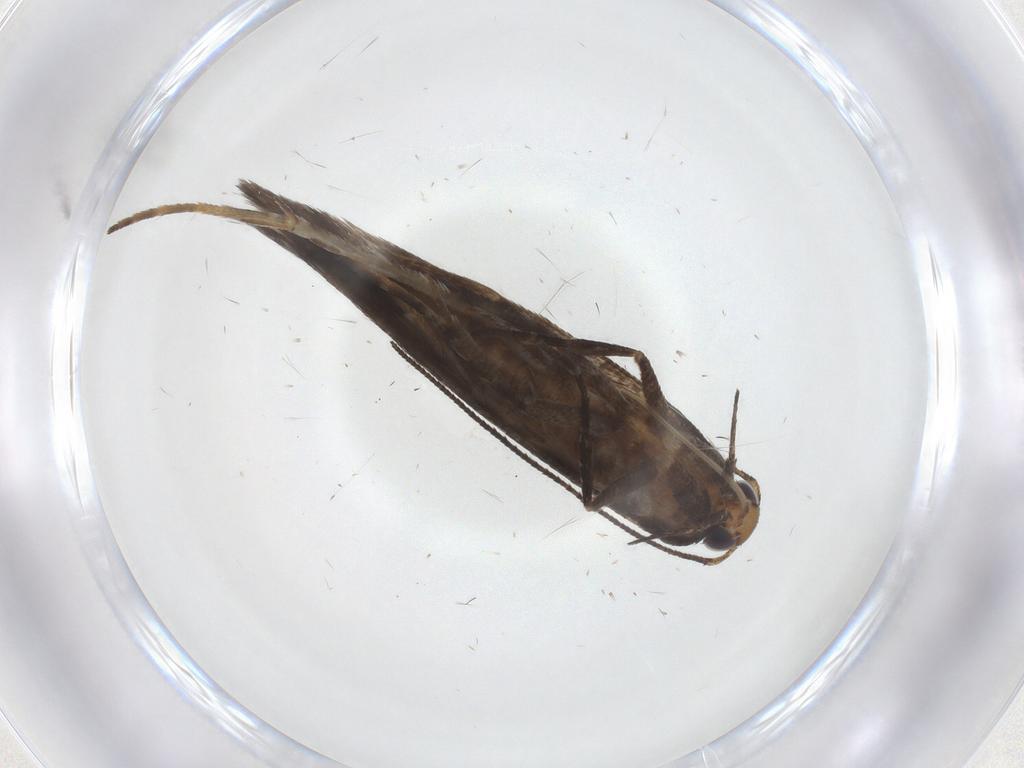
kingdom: Animalia
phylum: Arthropoda
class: Insecta
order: Lepidoptera
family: Gelechiidae
